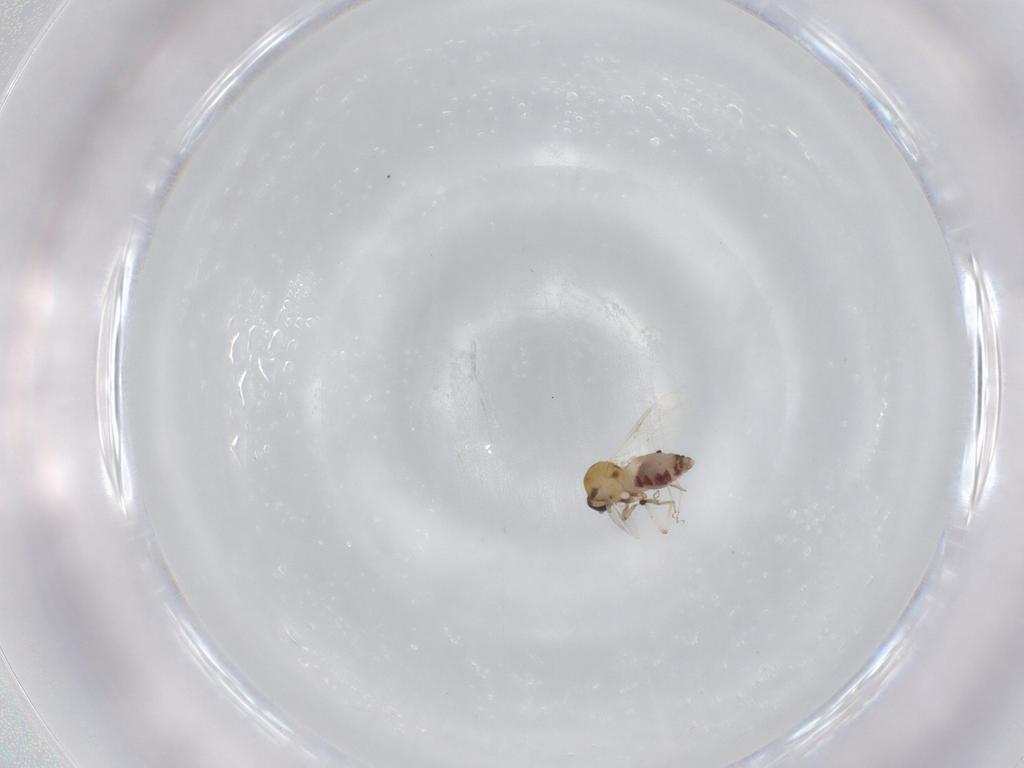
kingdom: Animalia
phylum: Arthropoda
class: Insecta
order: Diptera
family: Ceratopogonidae
